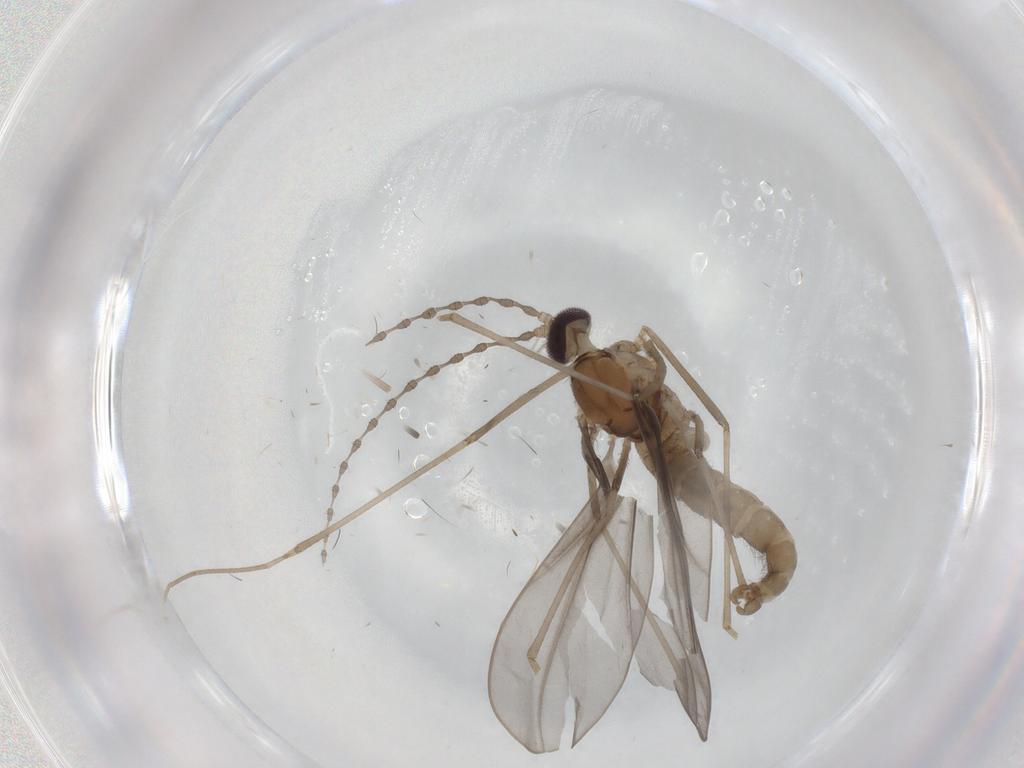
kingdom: Animalia
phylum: Arthropoda
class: Insecta
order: Diptera
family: Cecidomyiidae
